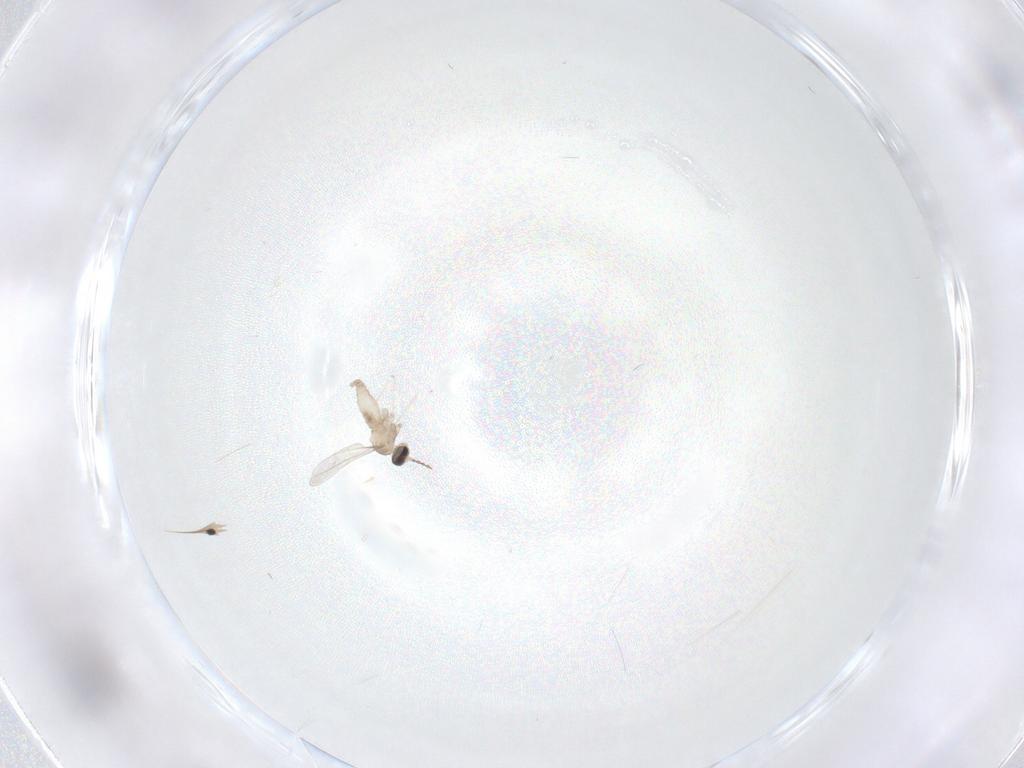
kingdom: Animalia
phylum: Arthropoda
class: Insecta
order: Diptera
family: Cecidomyiidae
